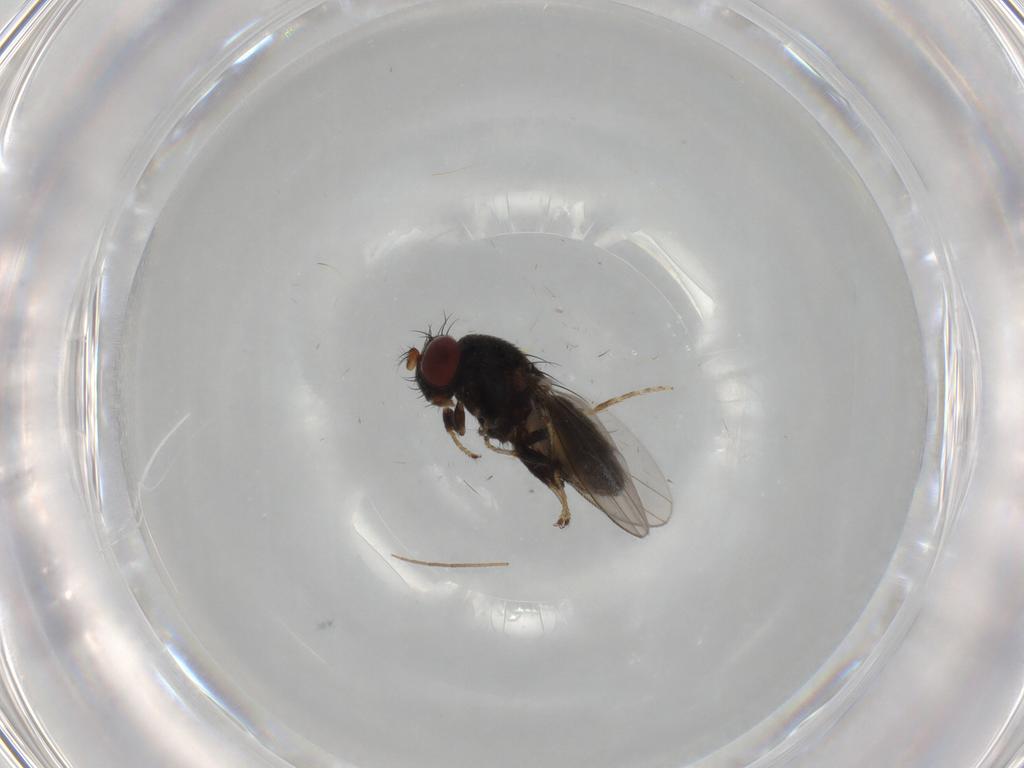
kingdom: Animalia
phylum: Arthropoda
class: Insecta
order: Diptera
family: Ephydridae
